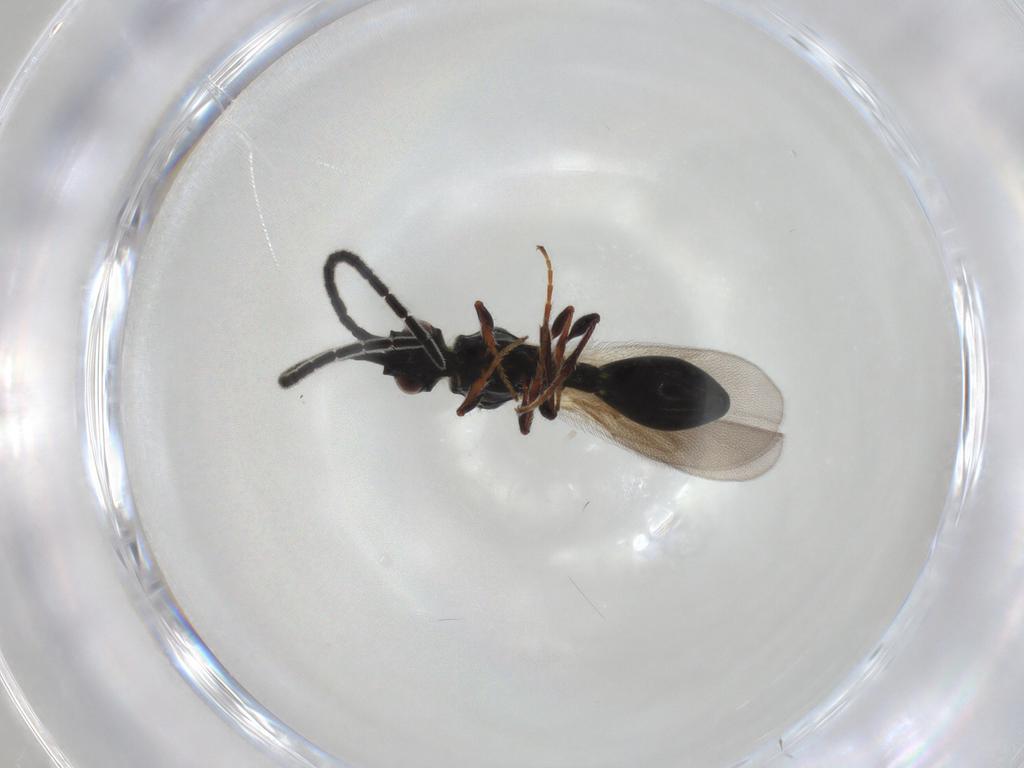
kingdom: Animalia
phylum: Arthropoda
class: Insecta
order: Hymenoptera
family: Diapriidae
